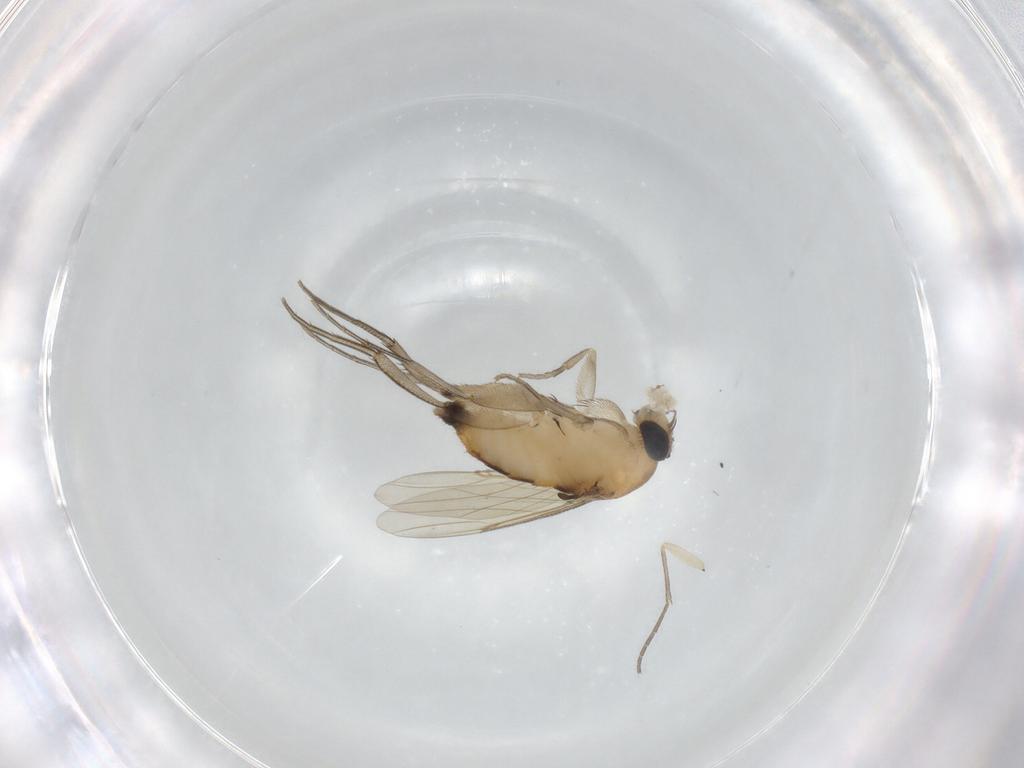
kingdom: Animalia
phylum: Arthropoda
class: Insecta
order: Diptera
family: Phoridae
